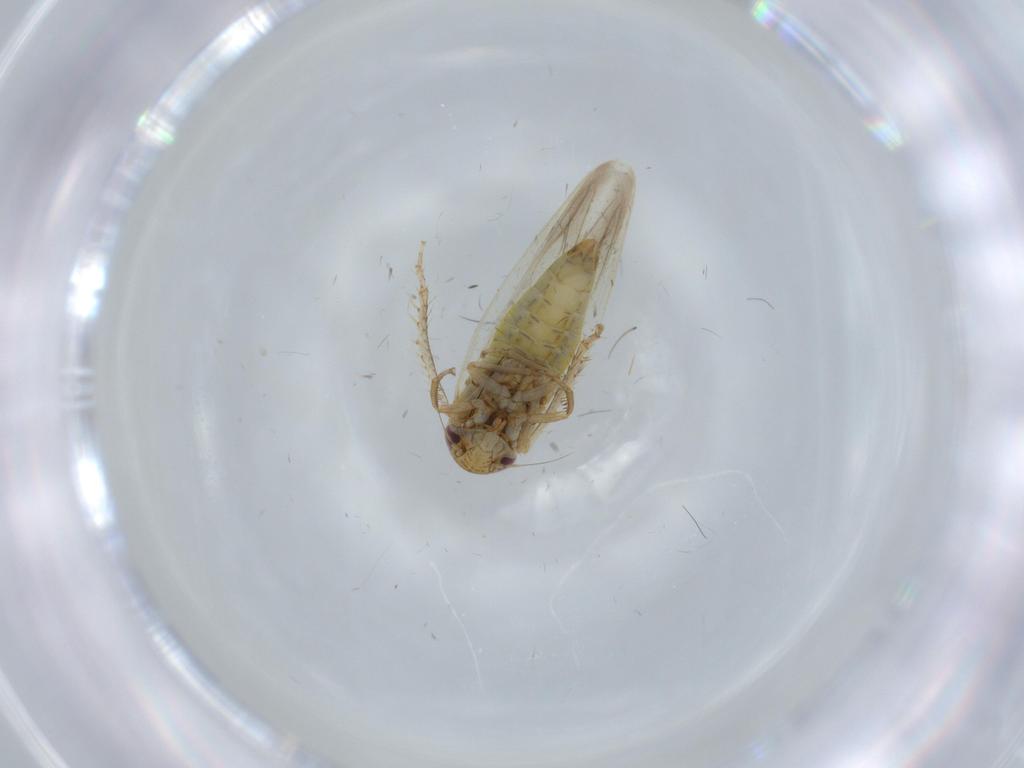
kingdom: Animalia
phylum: Arthropoda
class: Insecta
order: Hemiptera
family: Cicadellidae
